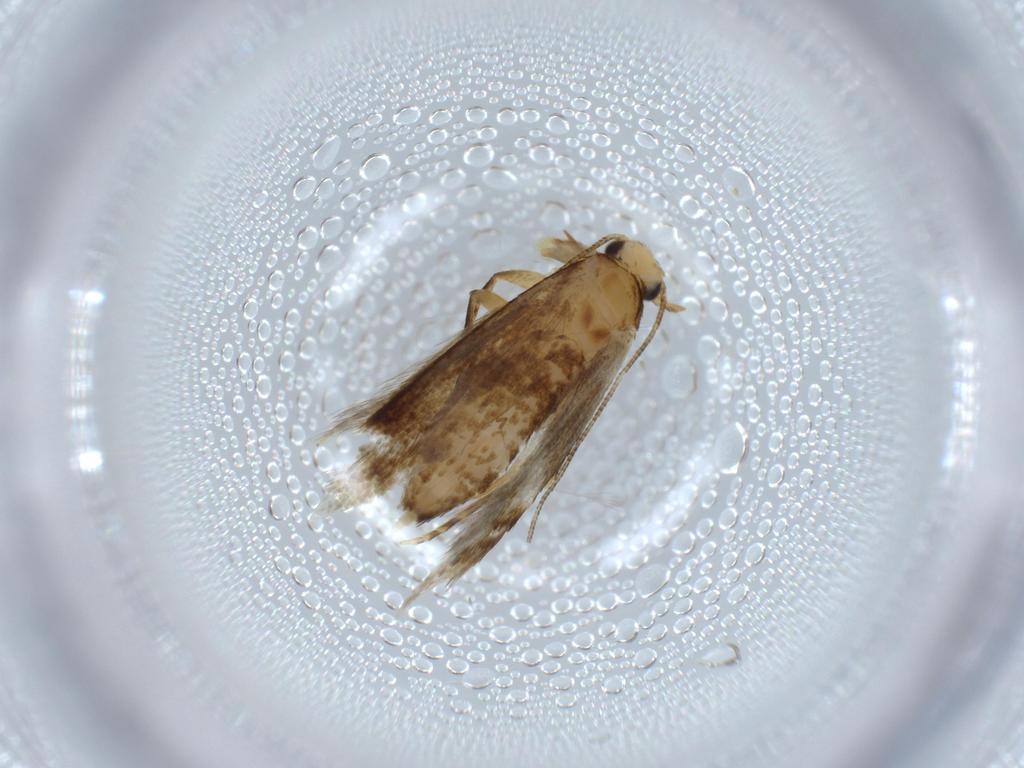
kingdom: Animalia
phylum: Arthropoda
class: Insecta
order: Lepidoptera
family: Tineidae
